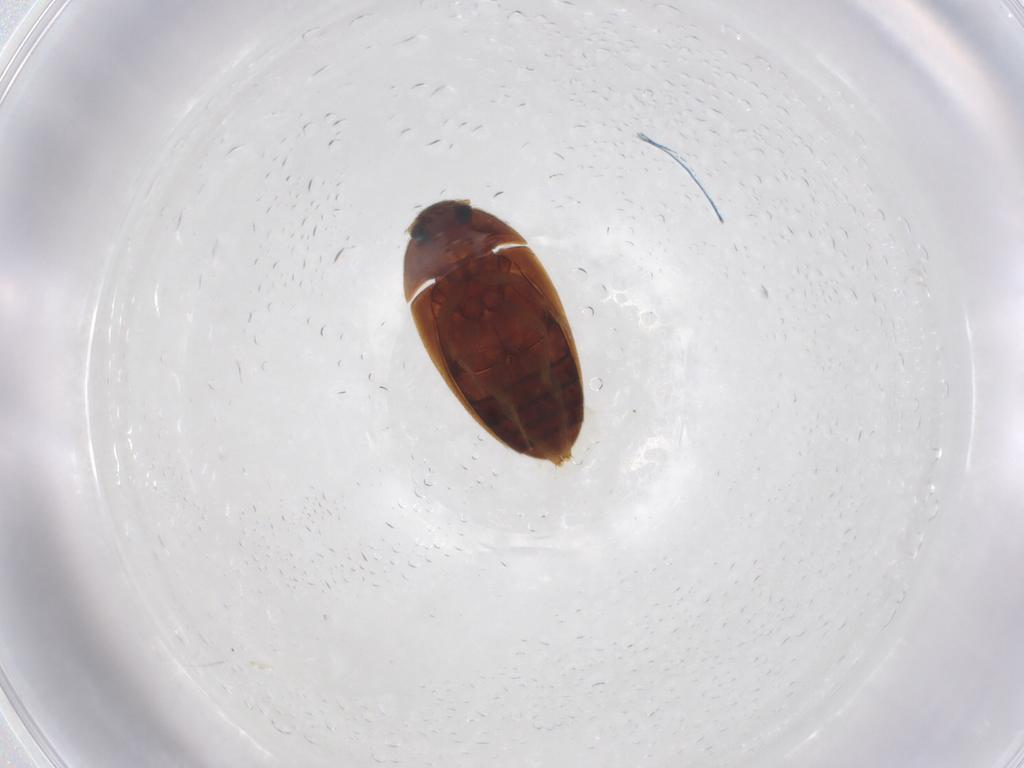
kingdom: Animalia
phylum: Arthropoda
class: Insecta
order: Coleoptera
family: Mycetophagidae
